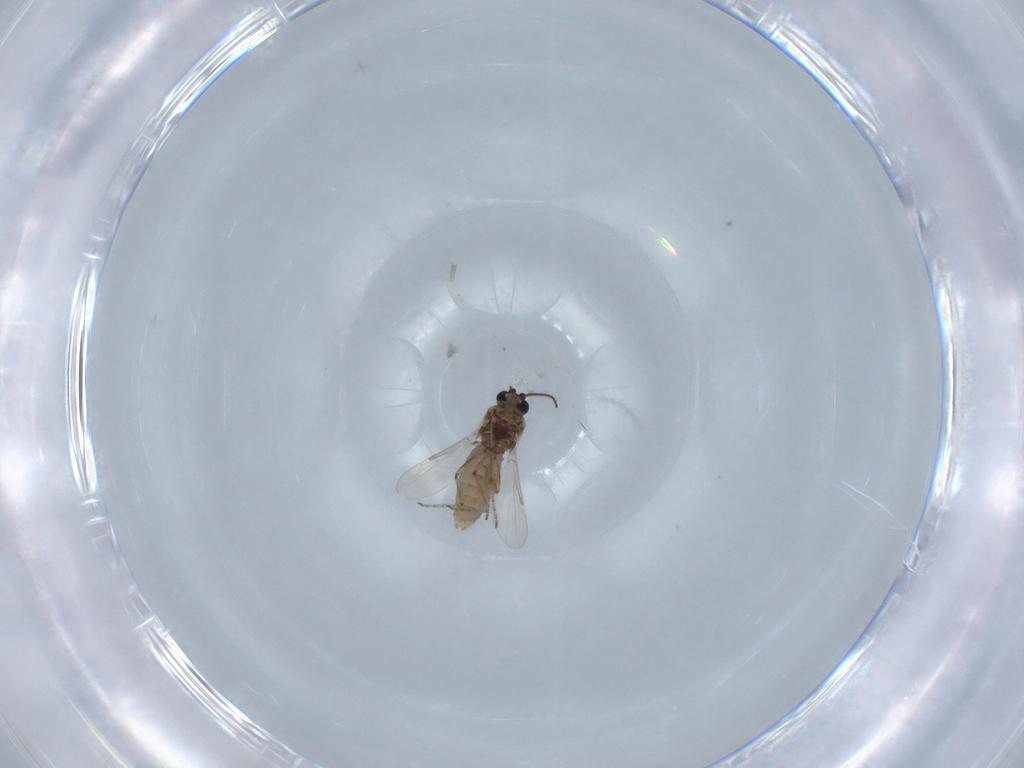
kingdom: Animalia
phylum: Arthropoda
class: Insecta
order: Diptera
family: Ceratopogonidae
